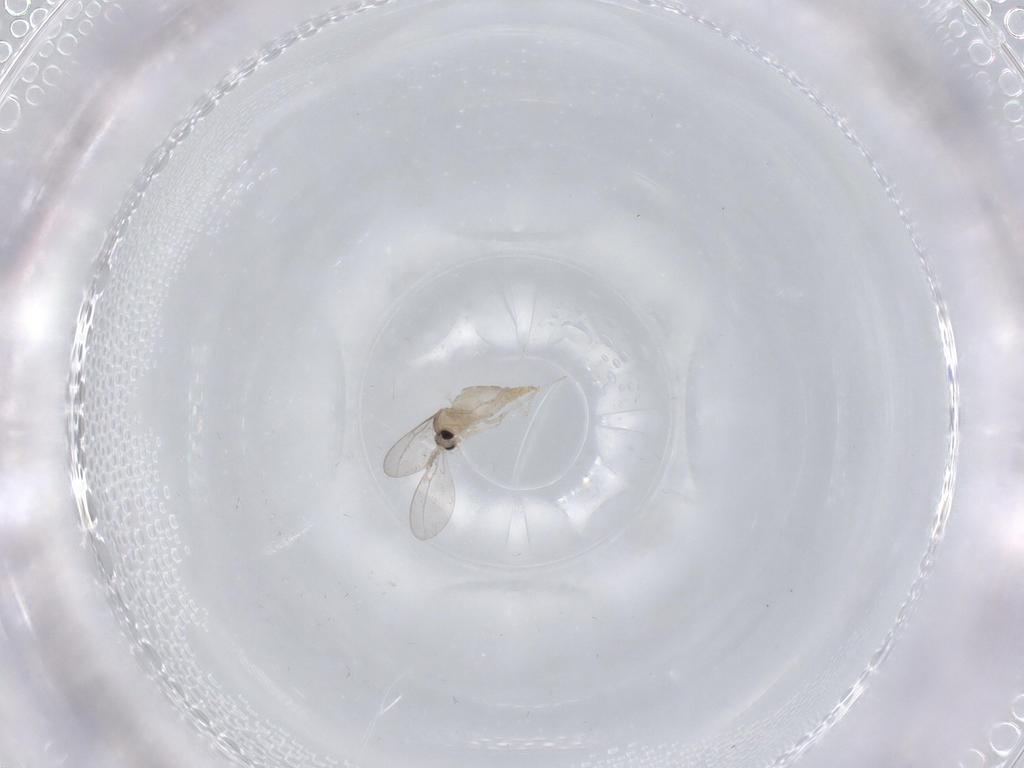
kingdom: Animalia
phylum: Arthropoda
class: Insecta
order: Diptera
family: Cecidomyiidae
